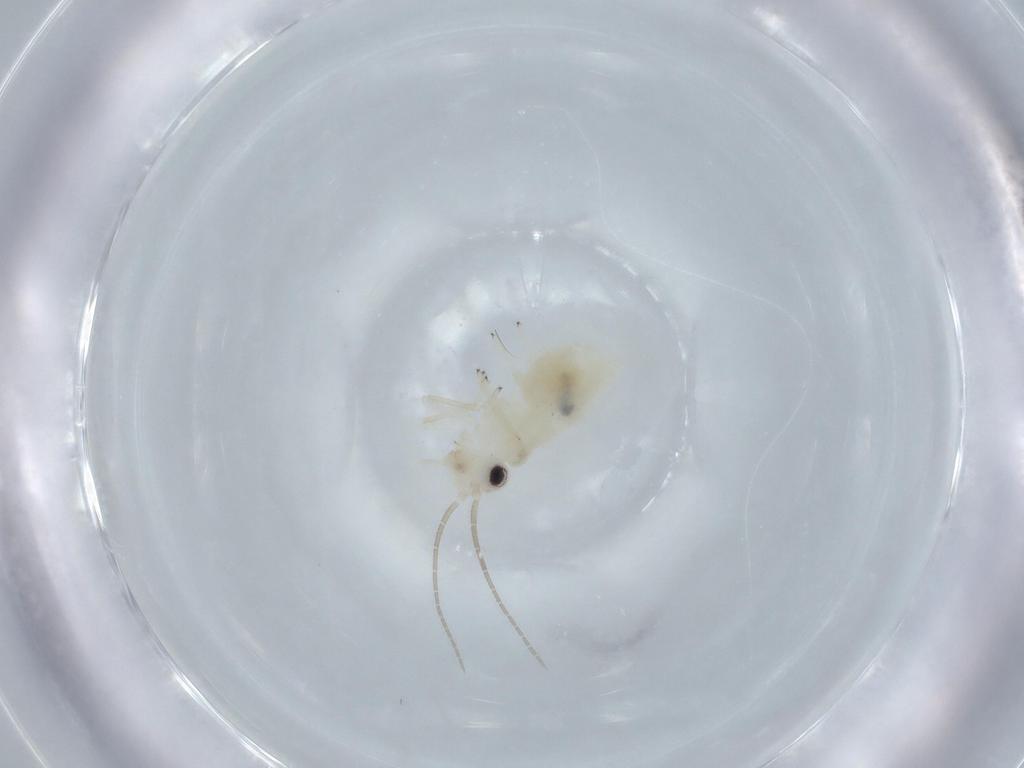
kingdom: Animalia
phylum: Arthropoda
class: Insecta
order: Psocodea
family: Caeciliusidae
